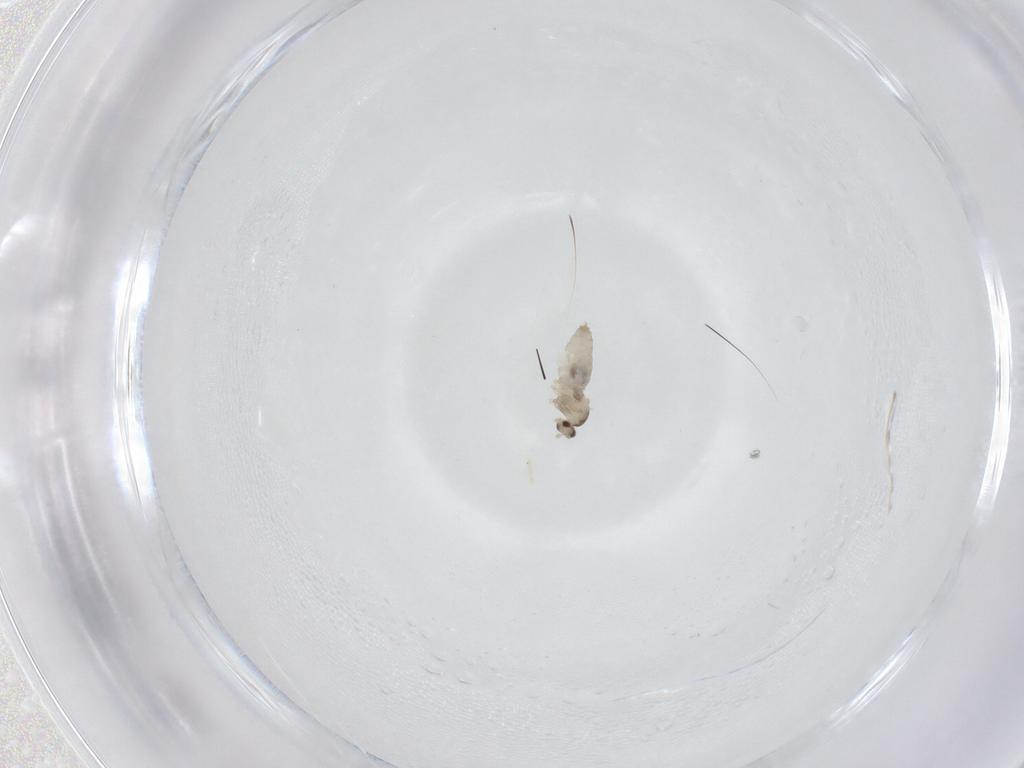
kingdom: Animalia
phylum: Arthropoda
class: Insecta
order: Diptera
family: Cecidomyiidae
